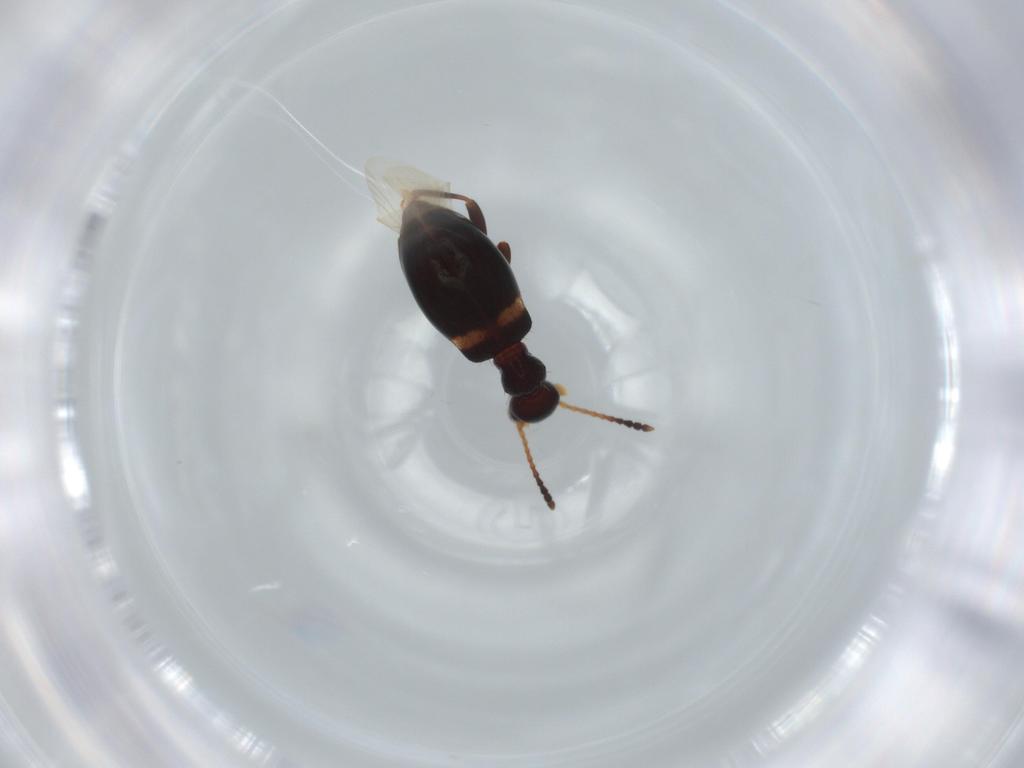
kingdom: Animalia
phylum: Arthropoda
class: Insecta
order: Coleoptera
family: Anthicidae
